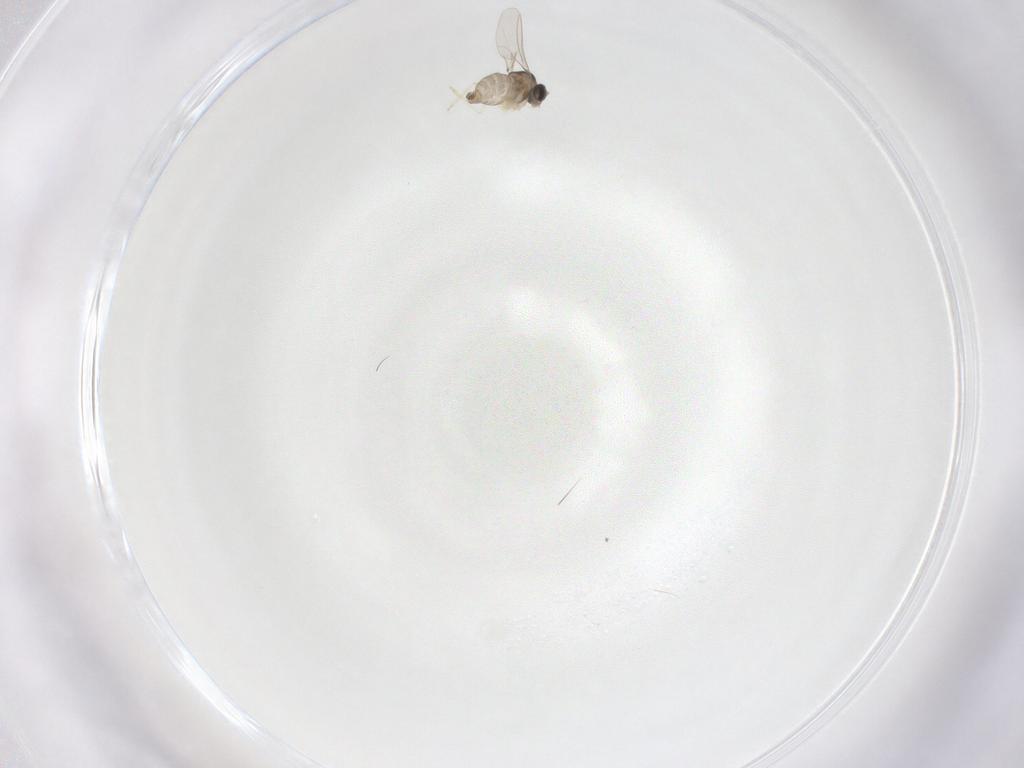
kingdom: Animalia
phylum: Arthropoda
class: Insecta
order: Diptera
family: Cecidomyiidae
